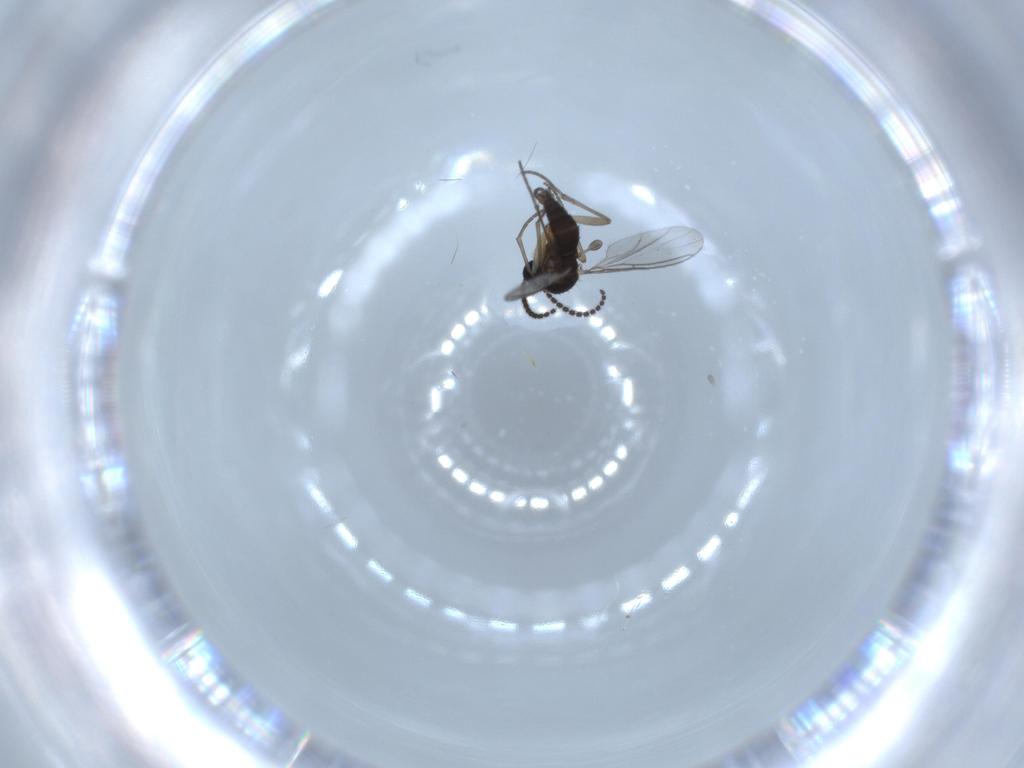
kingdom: Animalia
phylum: Arthropoda
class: Insecta
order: Diptera
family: Sciaridae
